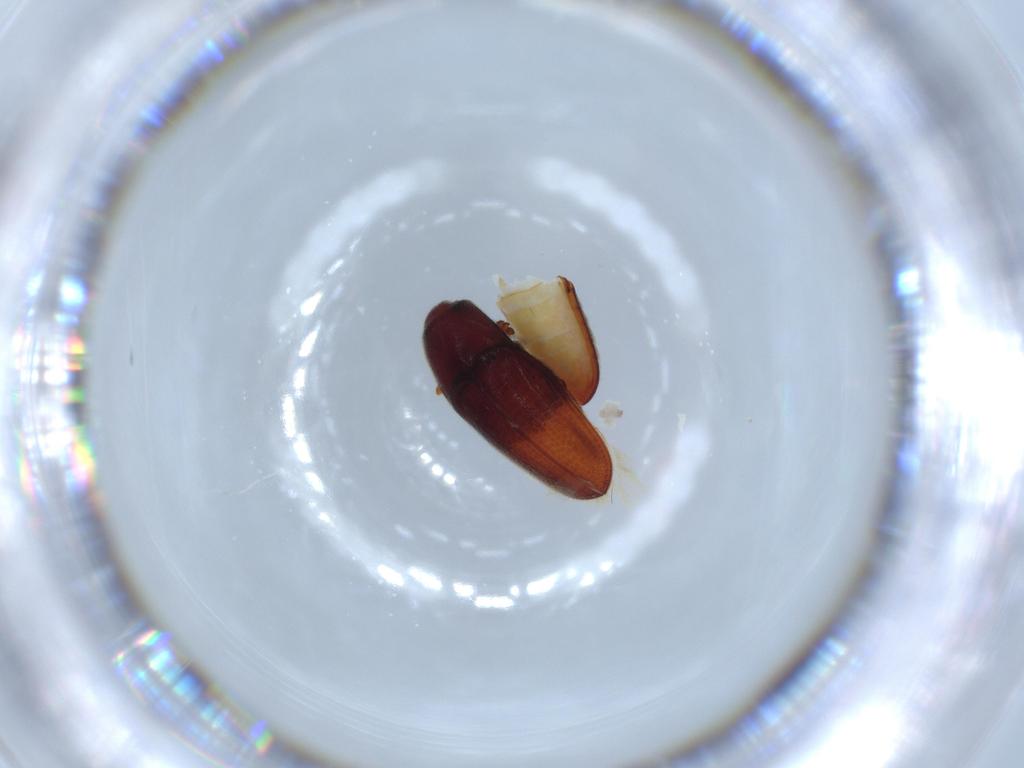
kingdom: Animalia
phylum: Arthropoda
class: Insecta
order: Coleoptera
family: Throscidae
